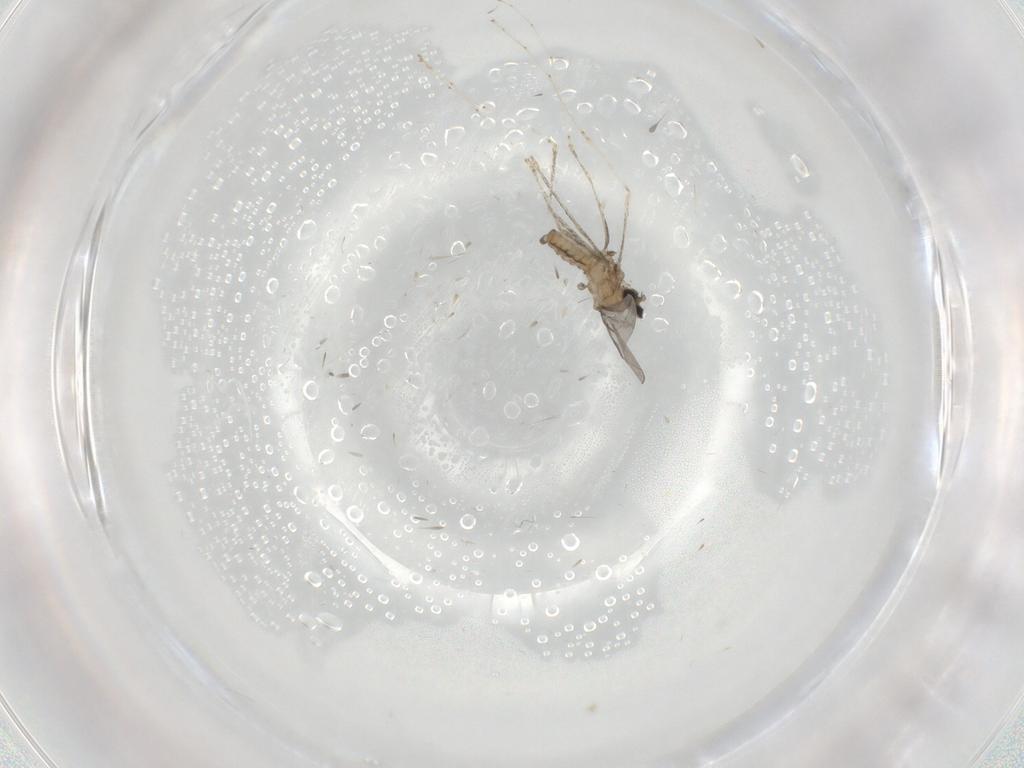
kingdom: Animalia
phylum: Arthropoda
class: Insecta
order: Diptera
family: Cecidomyiidae
